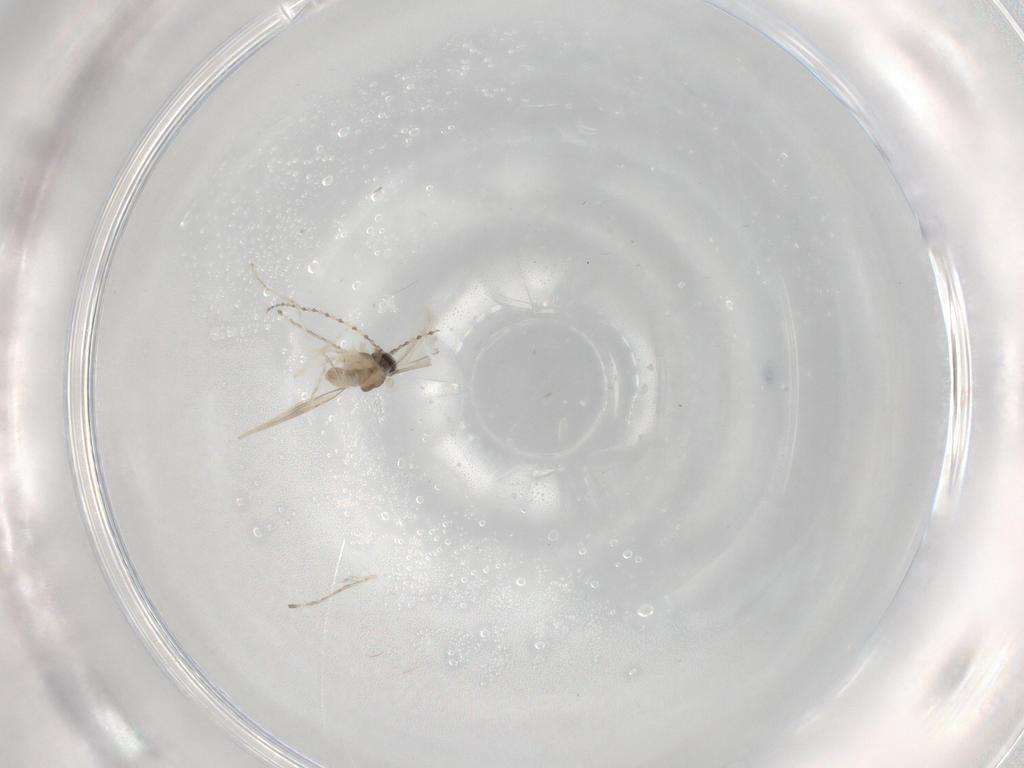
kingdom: Animalia
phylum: Arthropoda
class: Insecta
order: Diptera
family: Cecidomyiidae
